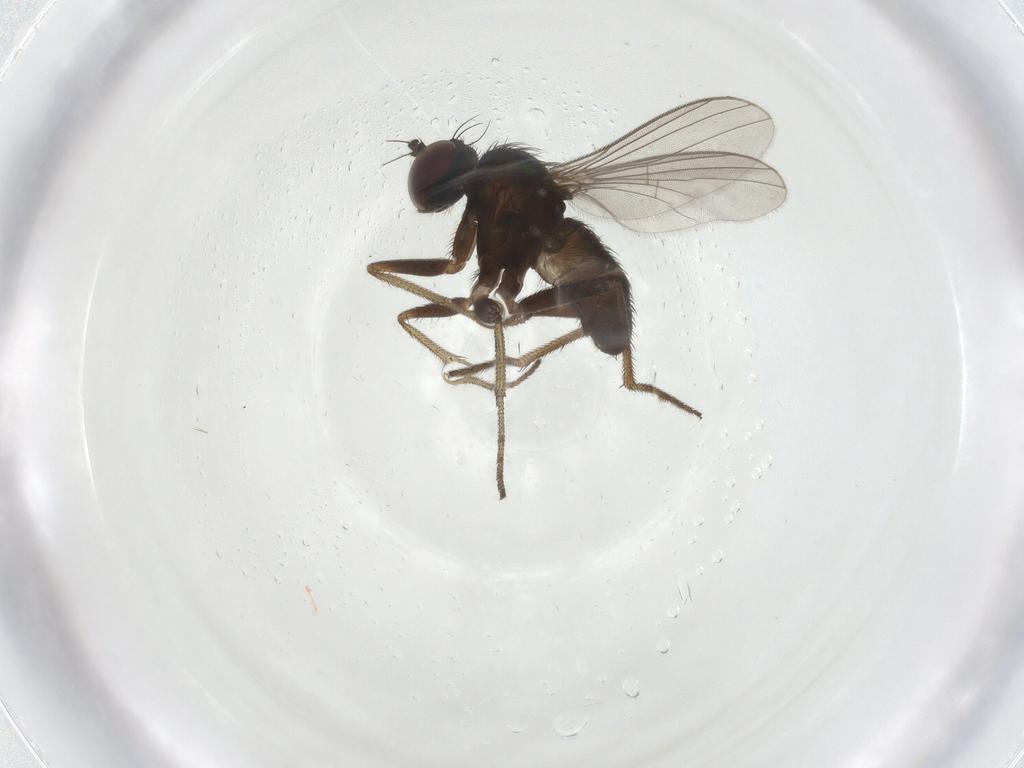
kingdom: Animalia
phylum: Arthropoda
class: Insecta
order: Diptera
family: Dolichopodidae
